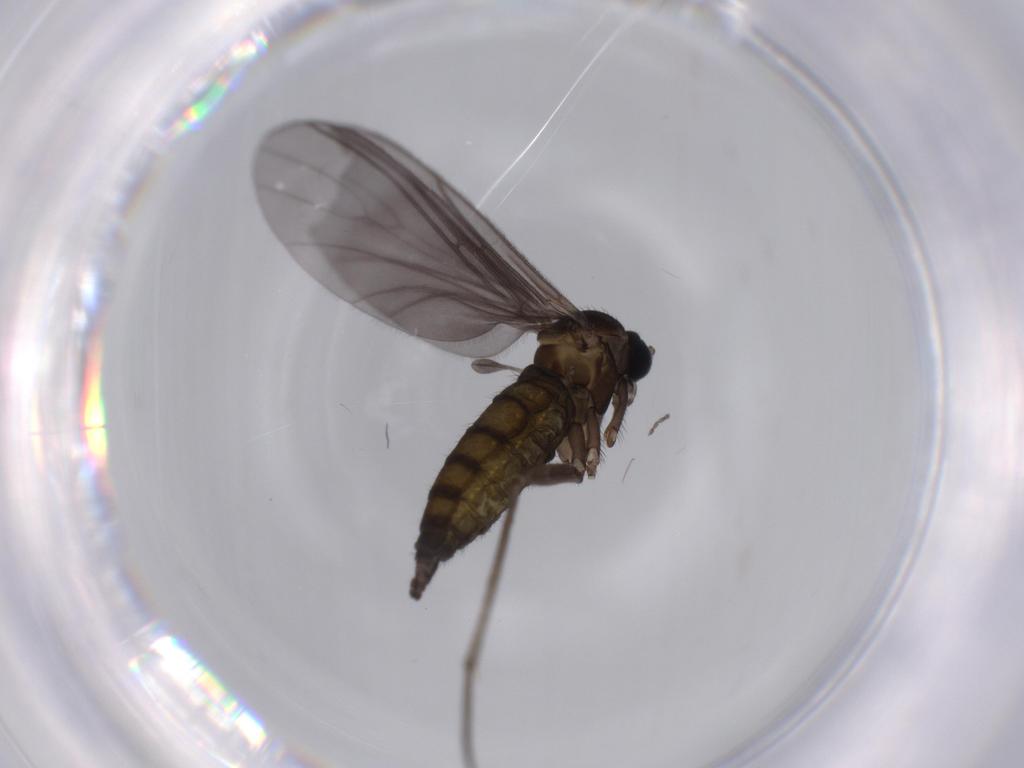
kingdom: Animalia
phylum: Arthropoda
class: Insecta
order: Diptera
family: Sciaridae
